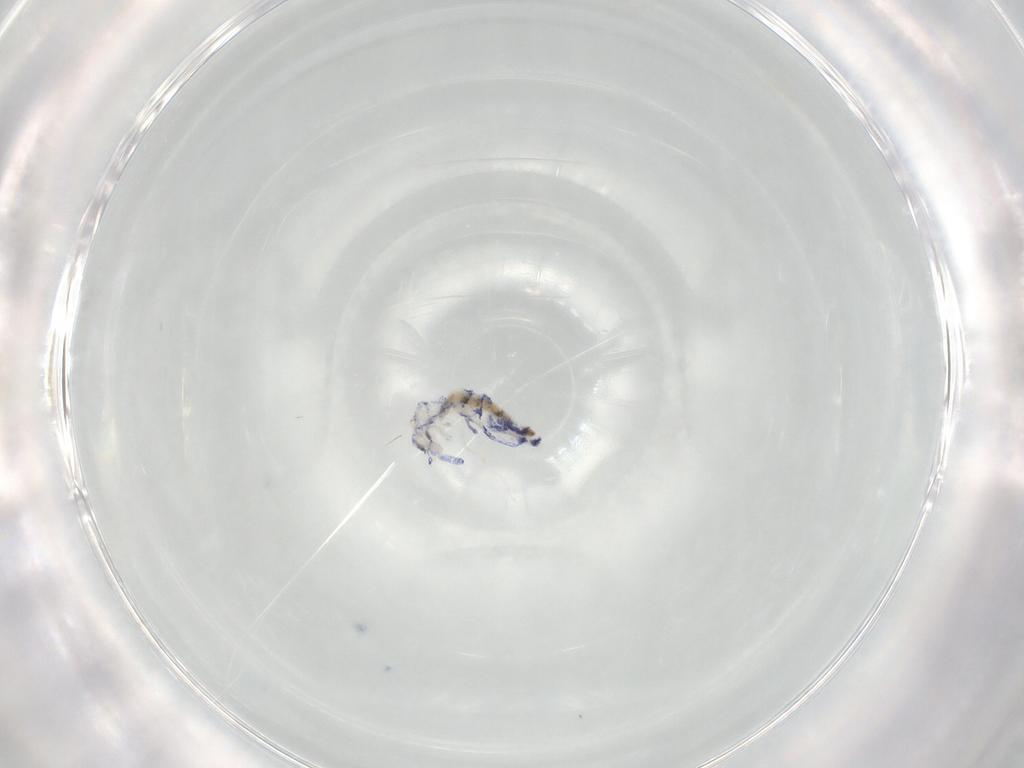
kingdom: Animalia
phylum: Arthropoda
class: Collembola
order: Entomobryomorpha
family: Entomobryidae
